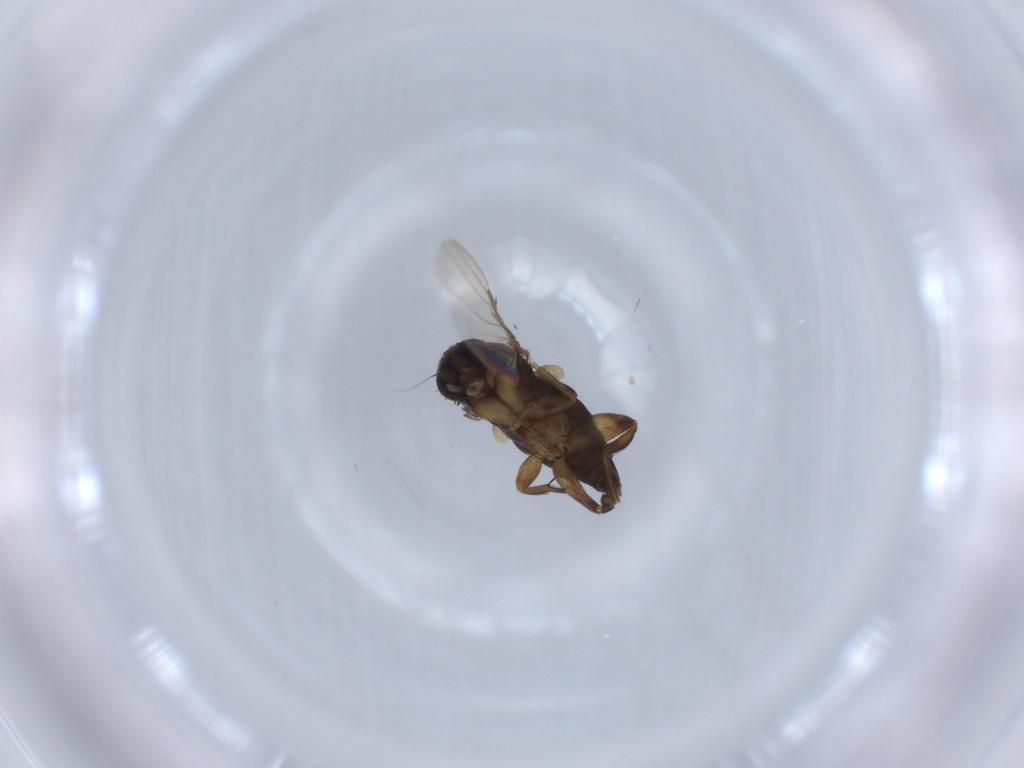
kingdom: Animalia
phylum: Arthropoda
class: Insecta
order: Diptera
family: Phoridae
